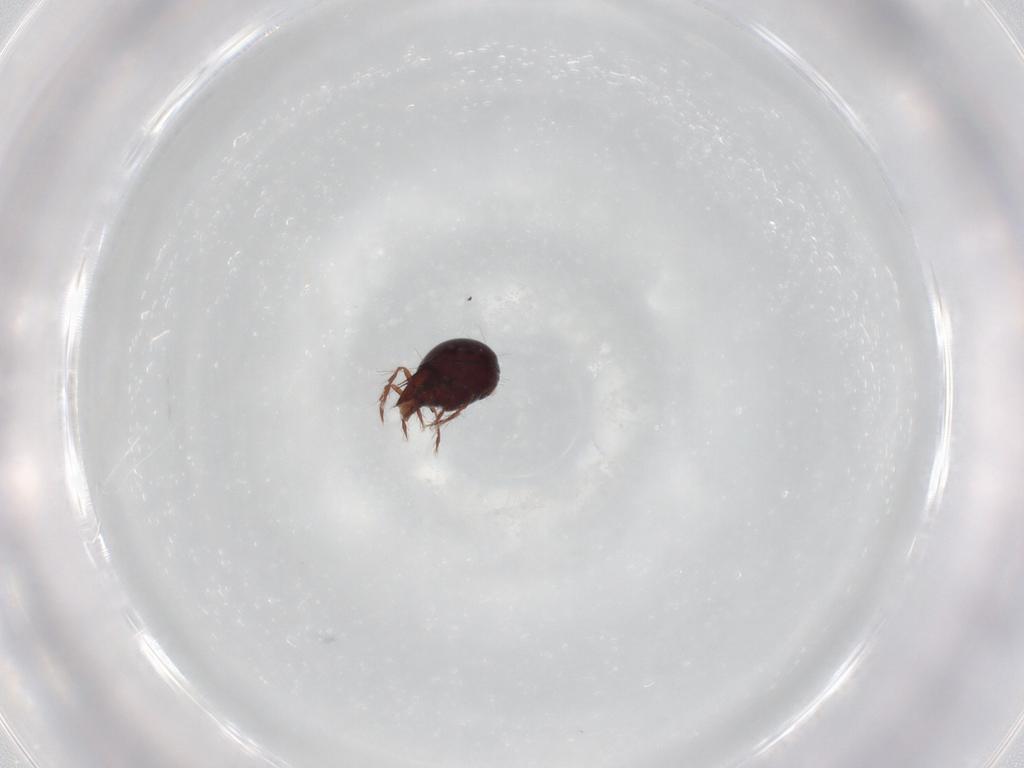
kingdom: Animalia
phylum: Arthropoda
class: Arachnida
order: Sarcoptiformes
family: Ceratoppiidae
